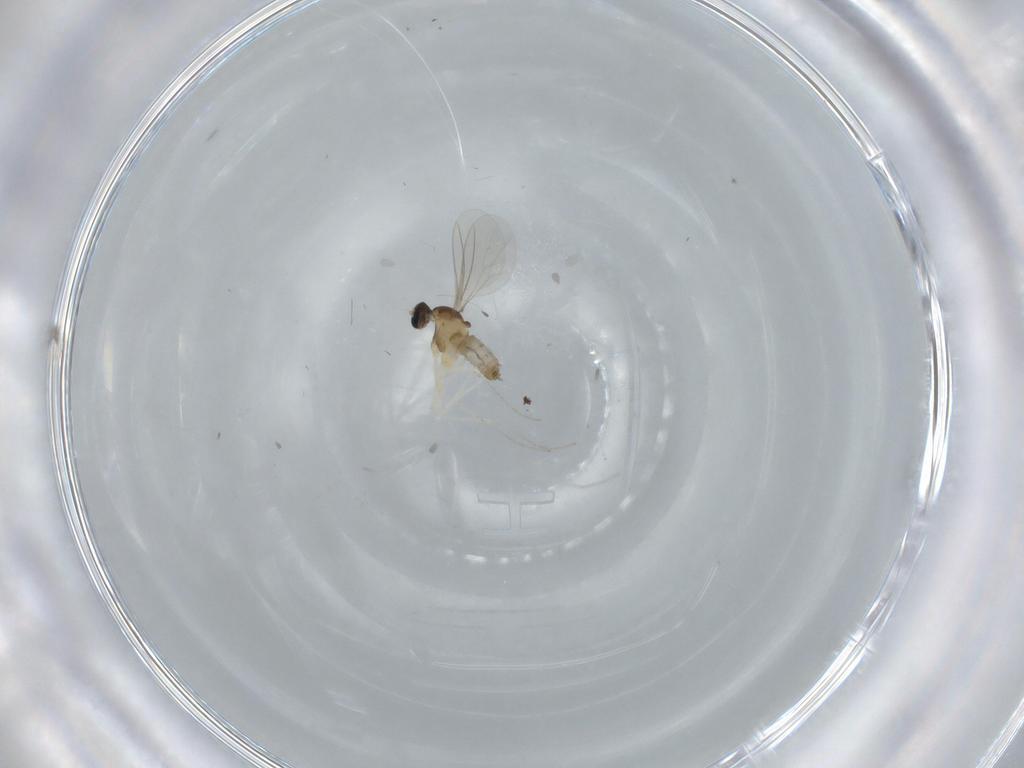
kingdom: Animalia
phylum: Arthropoda
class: Insecta
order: Diptera
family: Cecidomyiidae
